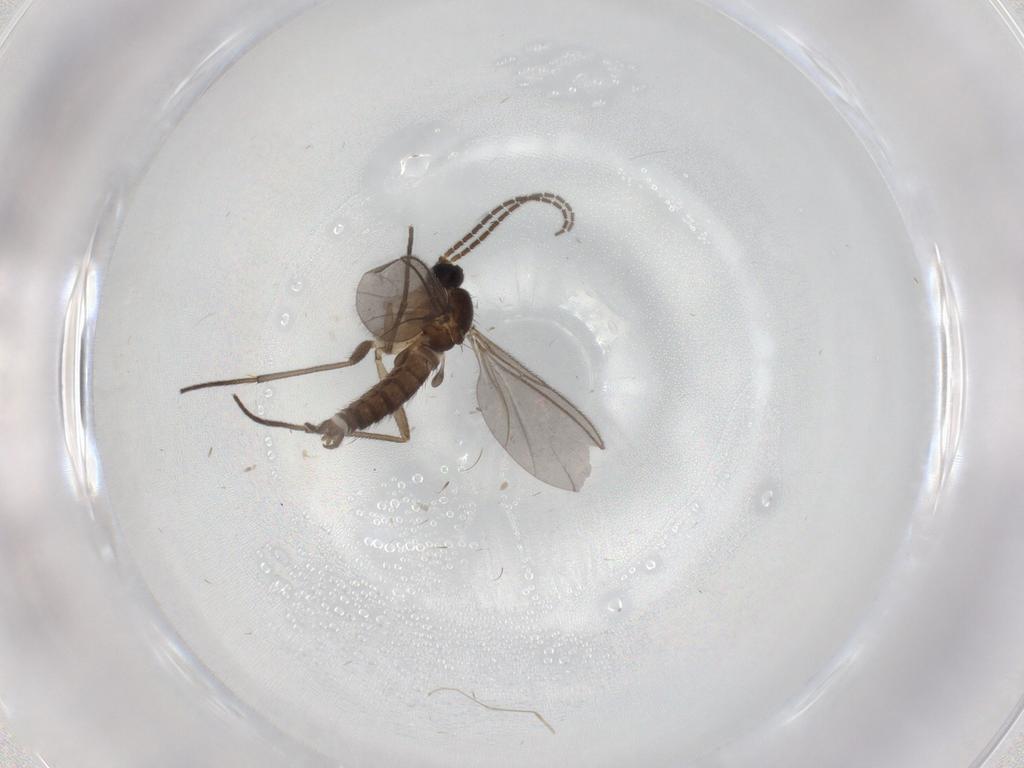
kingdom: Animalia
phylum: Arthropoda
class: Insecta
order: Diptera
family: Sciaridae
